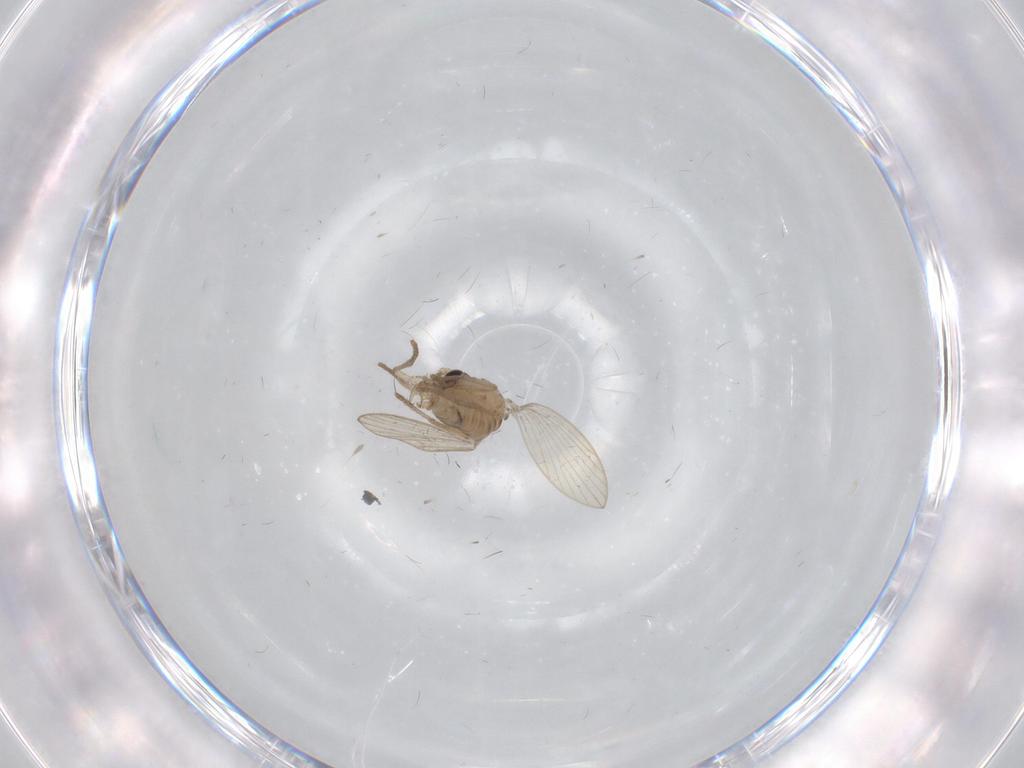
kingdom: Animalia
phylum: Arthropoda
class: Insecta
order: Diptera
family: Chironomidae
